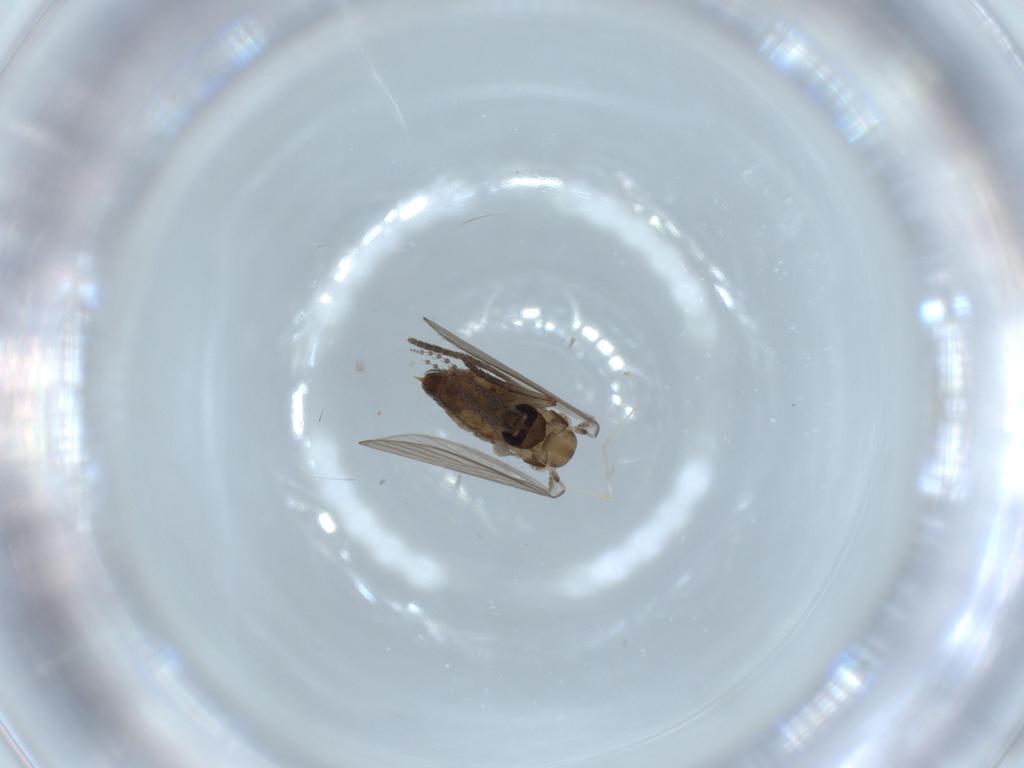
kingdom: Animalia
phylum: Arthropoda
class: Insecta
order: Diptera
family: Psychodidae
